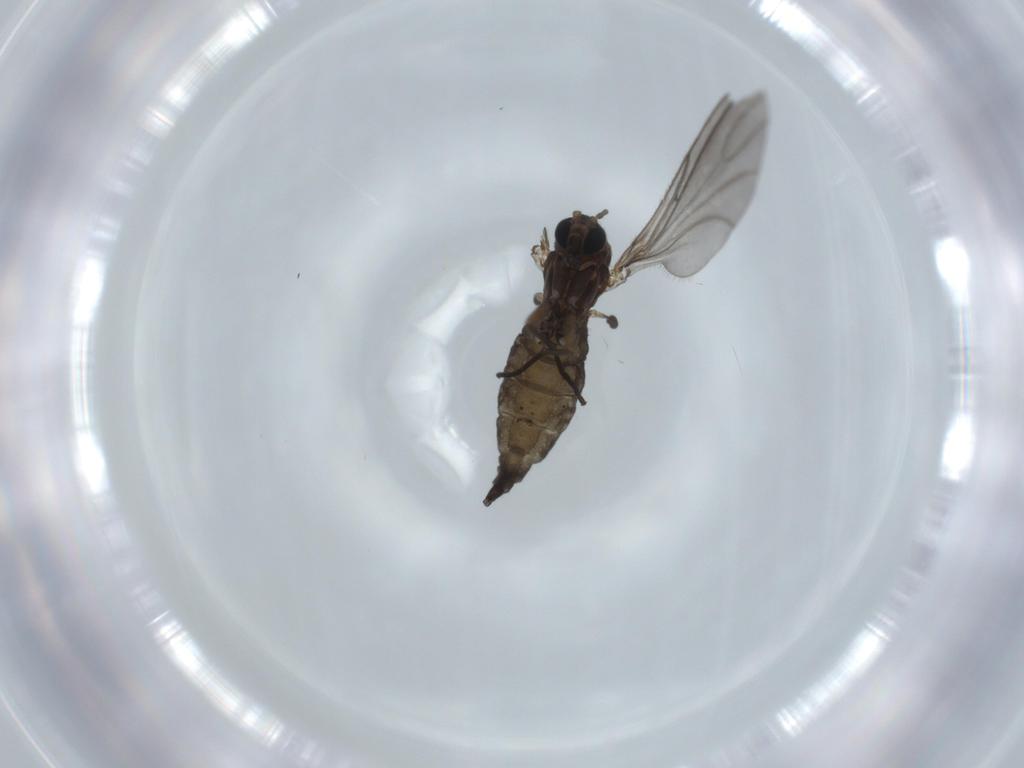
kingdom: Animalia
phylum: Arthropoda
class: Insecta
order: Diptera
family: Sciaridae
